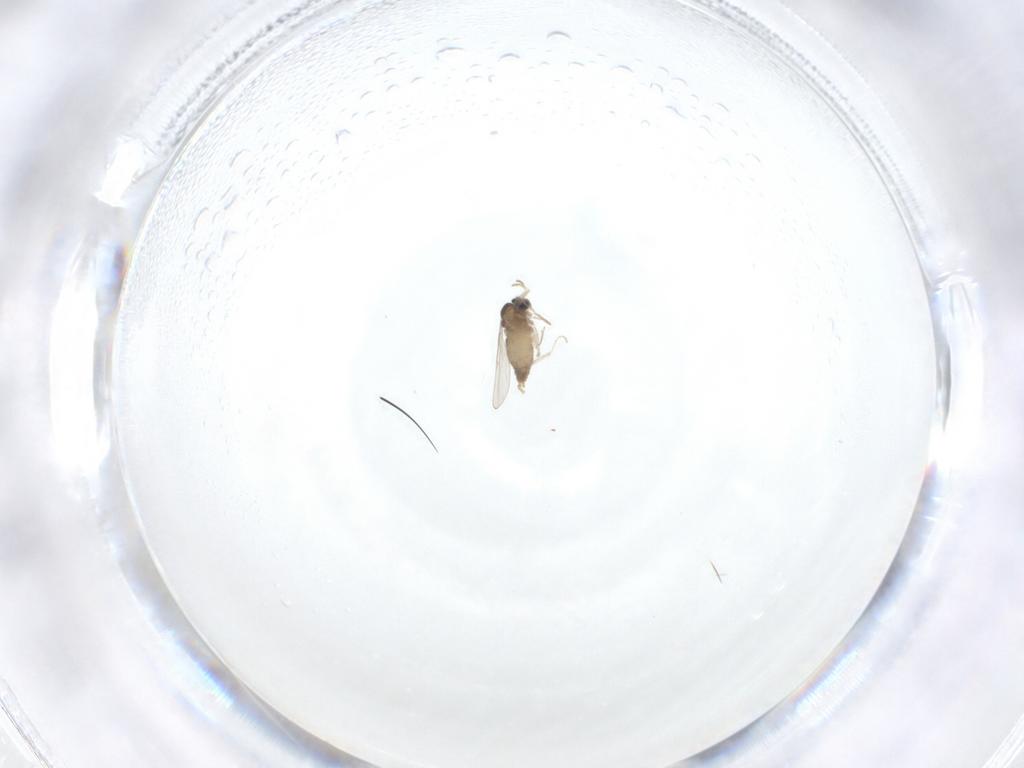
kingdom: Animalia
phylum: Arthropoda
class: Insecta
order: Diptera
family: Cecidomyiidae
